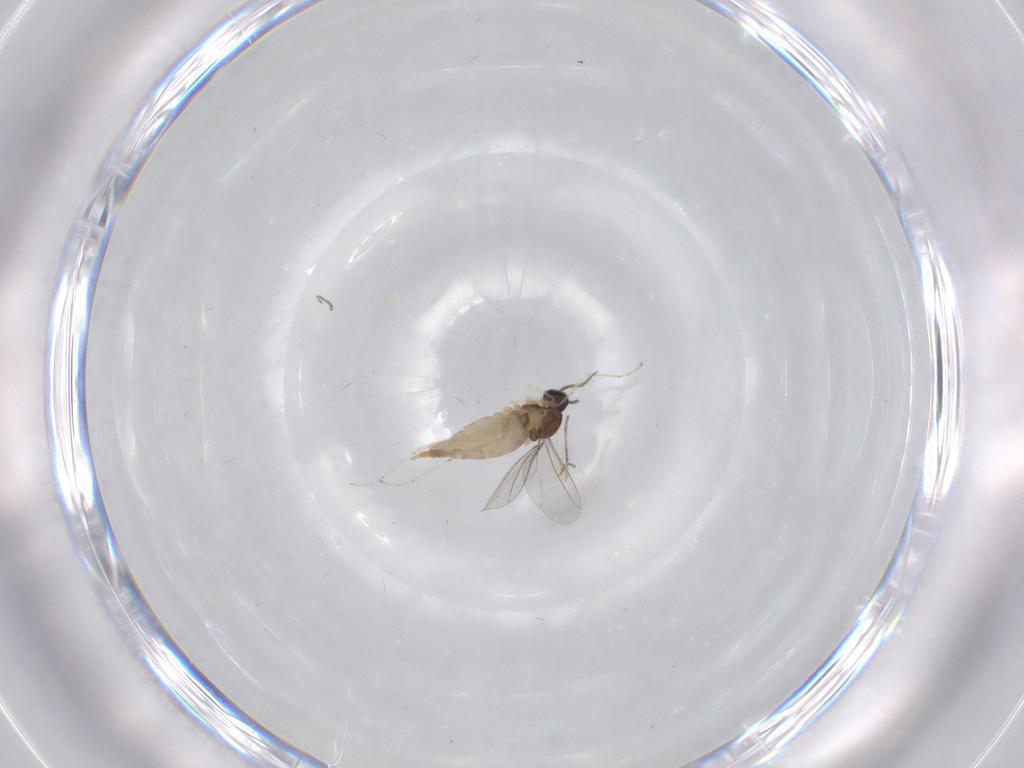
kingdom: Animalia
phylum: Arthropoda
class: Insecta
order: Diptera
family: Cecidomyiidae
